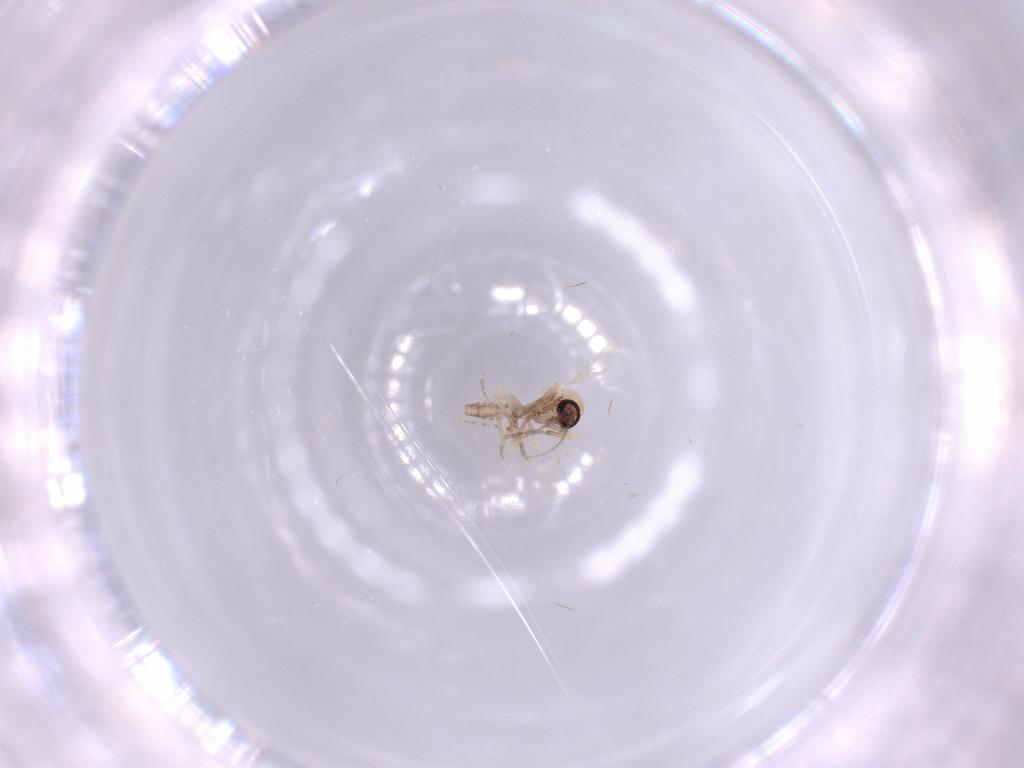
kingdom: Animalia
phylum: Arthropoda
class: Insecta
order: Diptera
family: Ceratopogonidae
